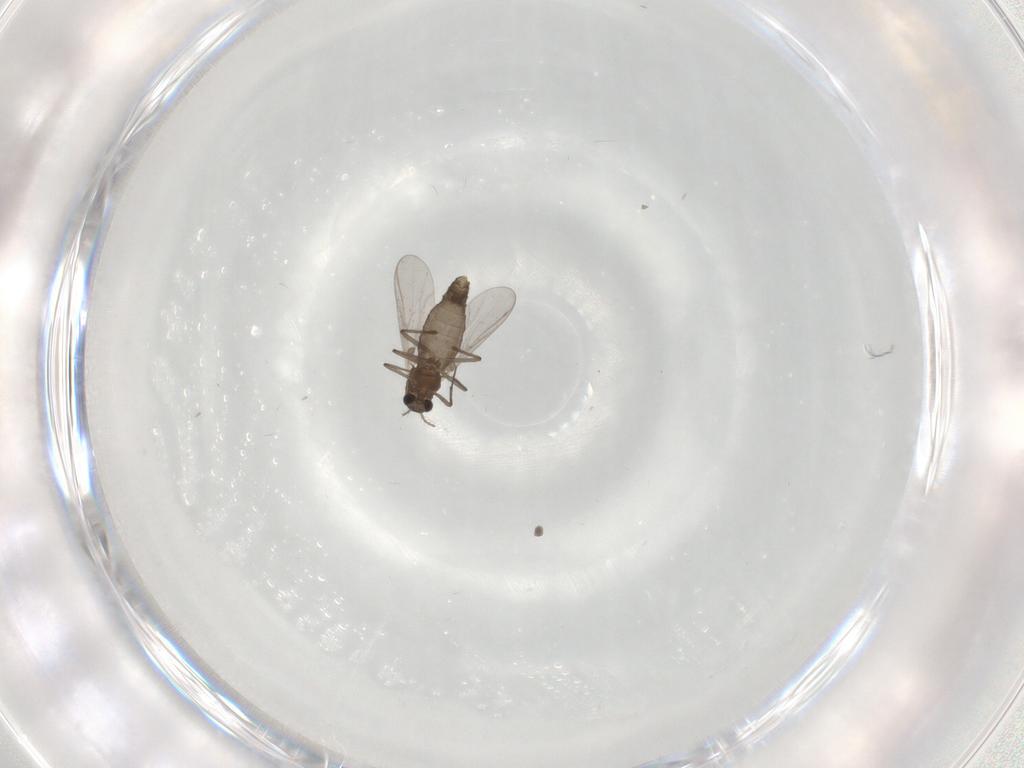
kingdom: Animalia
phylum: Arthropoda
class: Insecta
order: Diptera
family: Chironomidae
